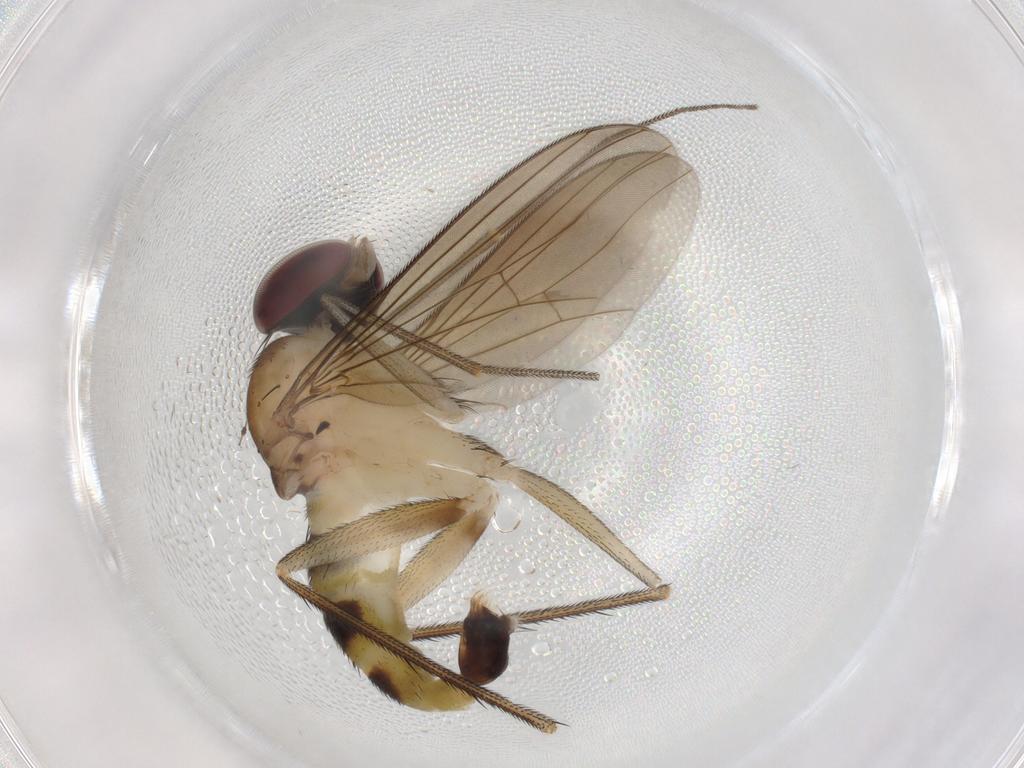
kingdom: Animalia
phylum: Arthropoda
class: Insecta
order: Diptera
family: Dolichopodidae
